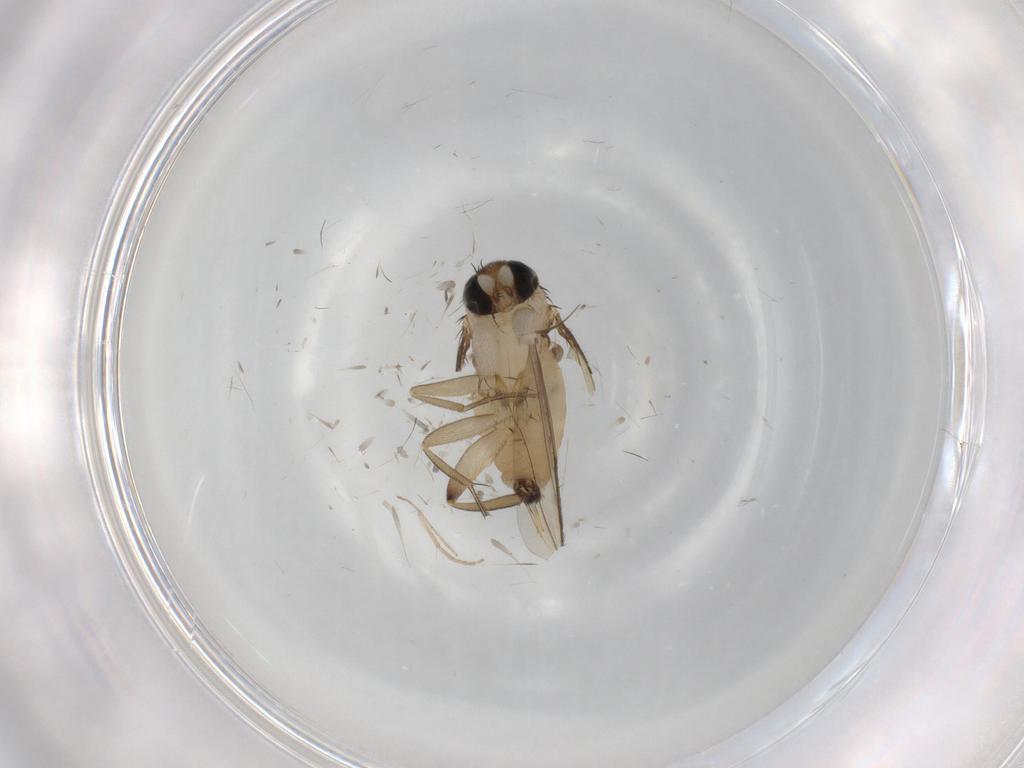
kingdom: Animalia
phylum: Arthropoda
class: Insecta
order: Diptera
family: Chironomidae
